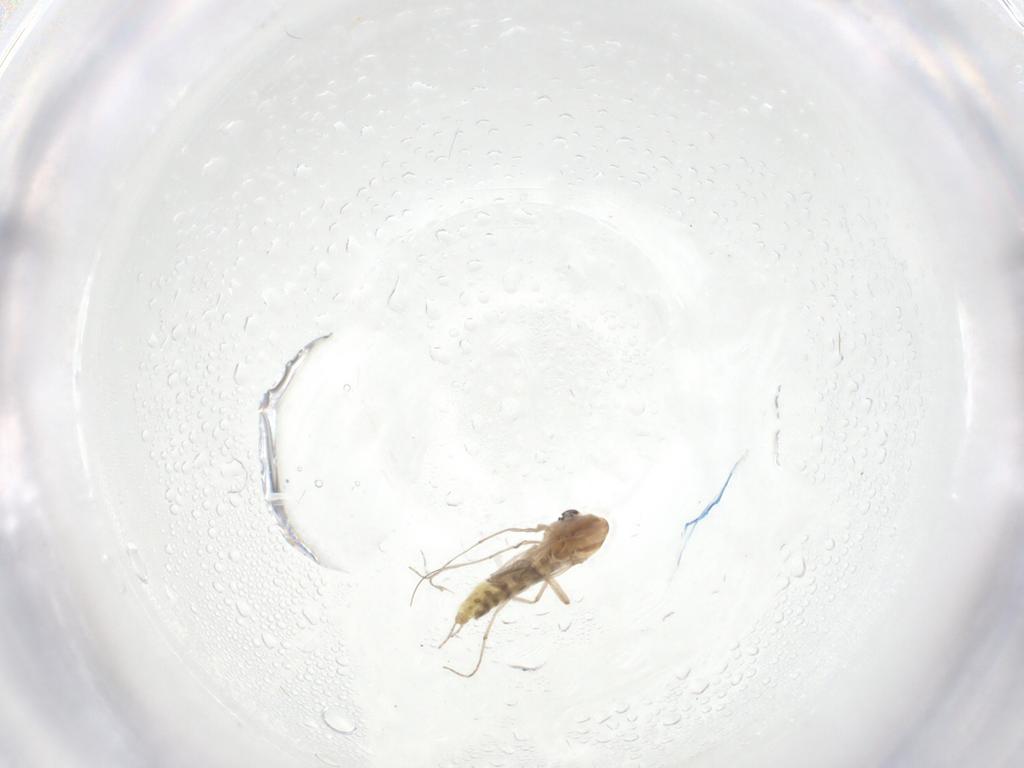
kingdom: Animalia
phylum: Arthropoda
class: Insecta
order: Diptera
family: Chironomidae
